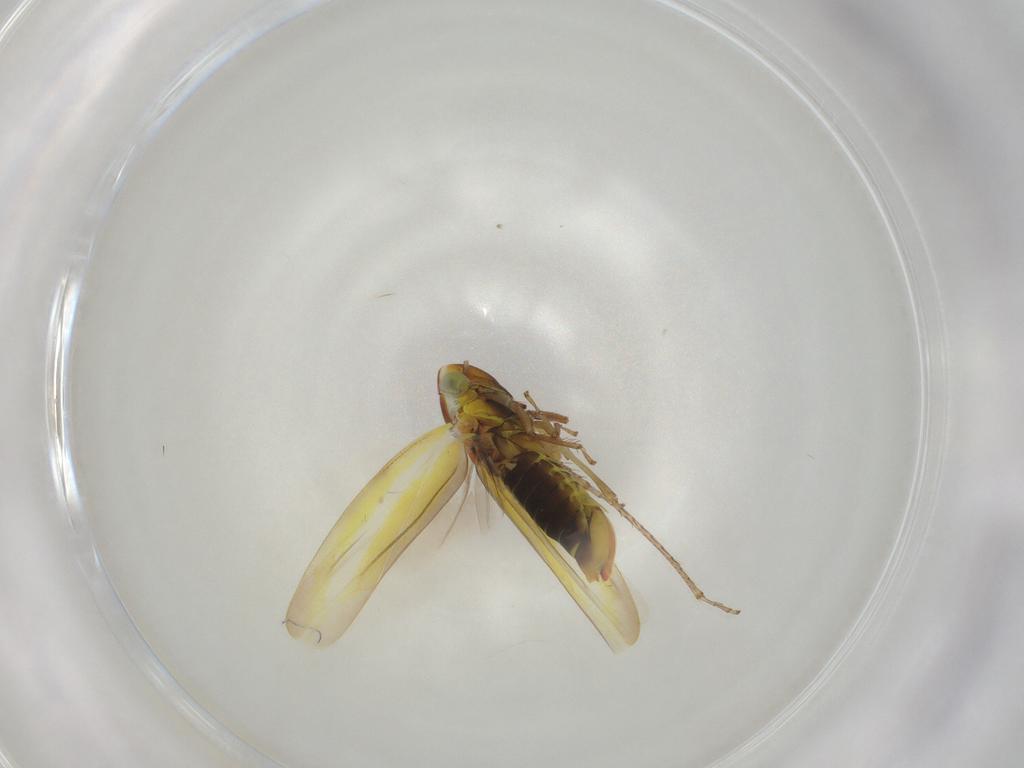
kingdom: Animalia
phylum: Arthropoda
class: Insecta
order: Hemiptera
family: Cicadellidae
